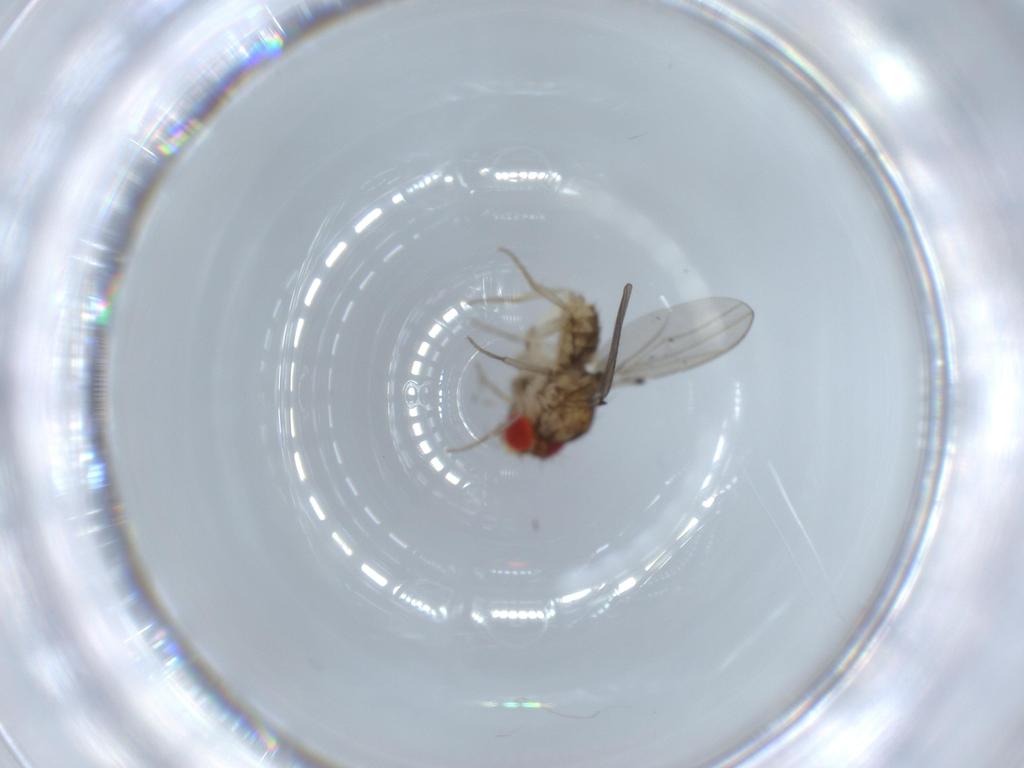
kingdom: Animalia
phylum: Arthropoda
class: Insecta
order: Diptera
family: Drosophilidae
